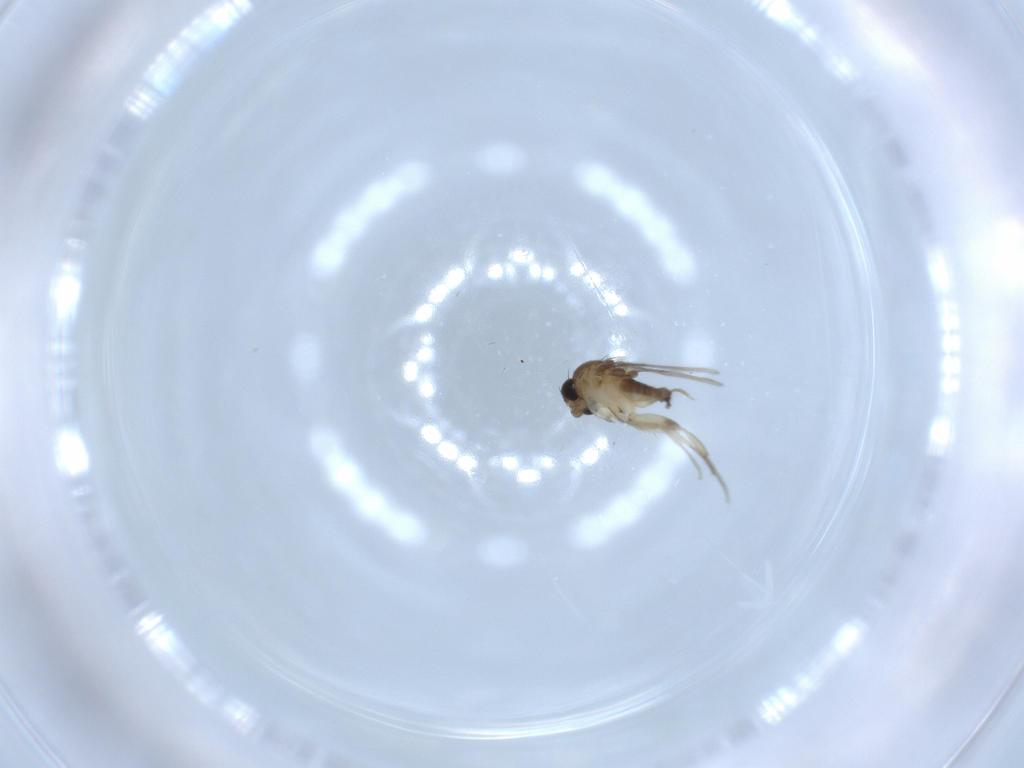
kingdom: Animalia
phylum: Arthropoda
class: Insecta
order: Diptera
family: Phoridae
